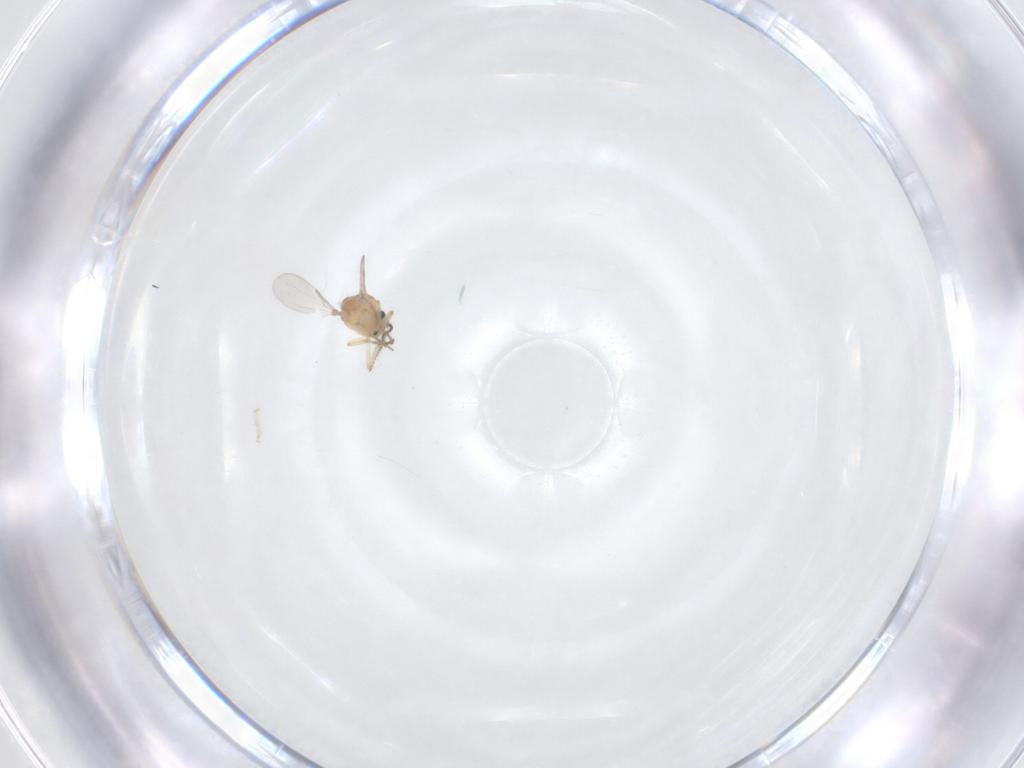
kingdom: Animalia
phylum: Arthropoda
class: Insecta
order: Diptera
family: Ceratopogonidae
